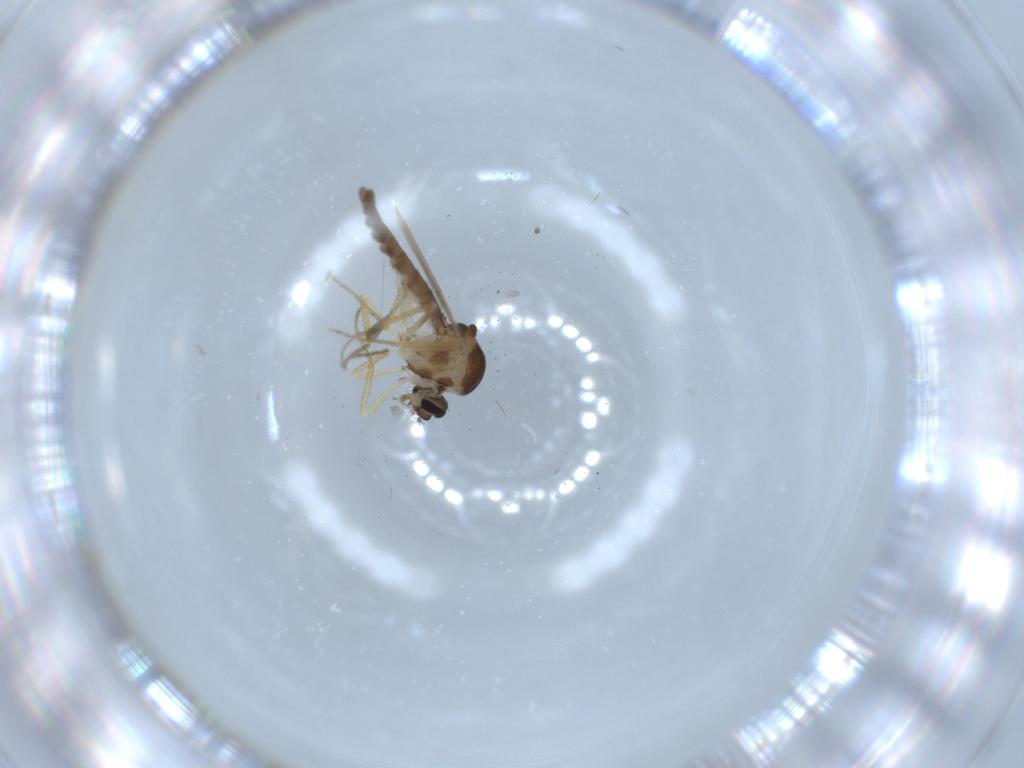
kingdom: Animalia
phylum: Arthropoda
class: Insecta
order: Diptera
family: Ceratopogonidae
